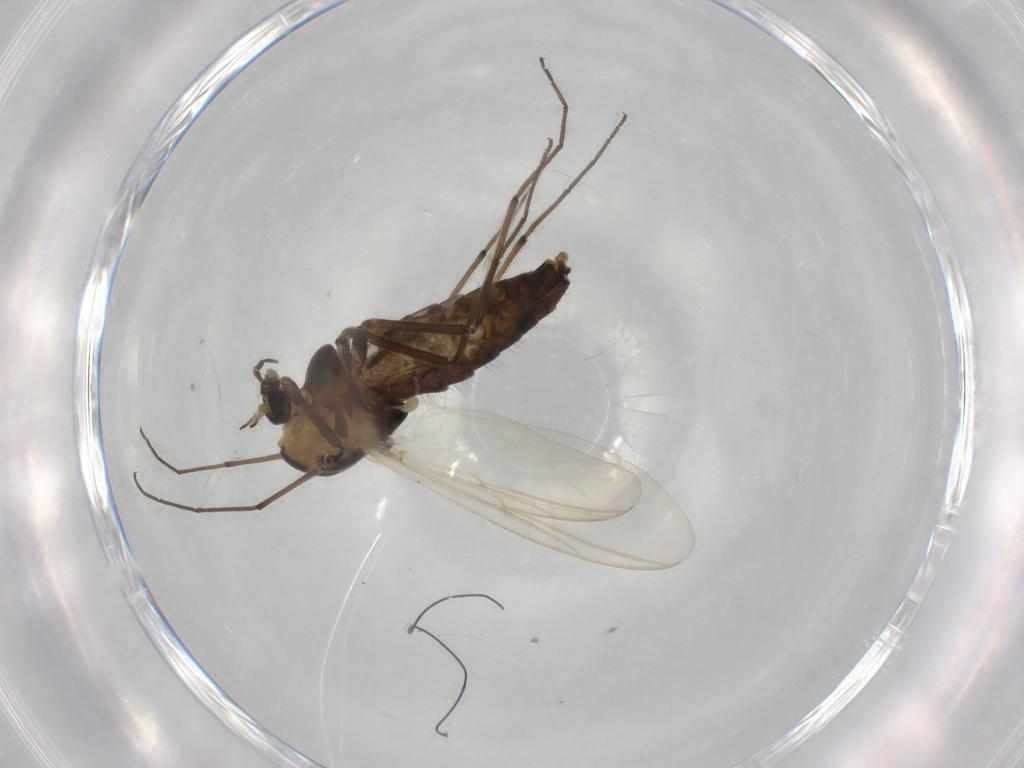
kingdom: Animalia
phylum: Arthropoda
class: Insecta
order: Diptera
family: Chironomidae
